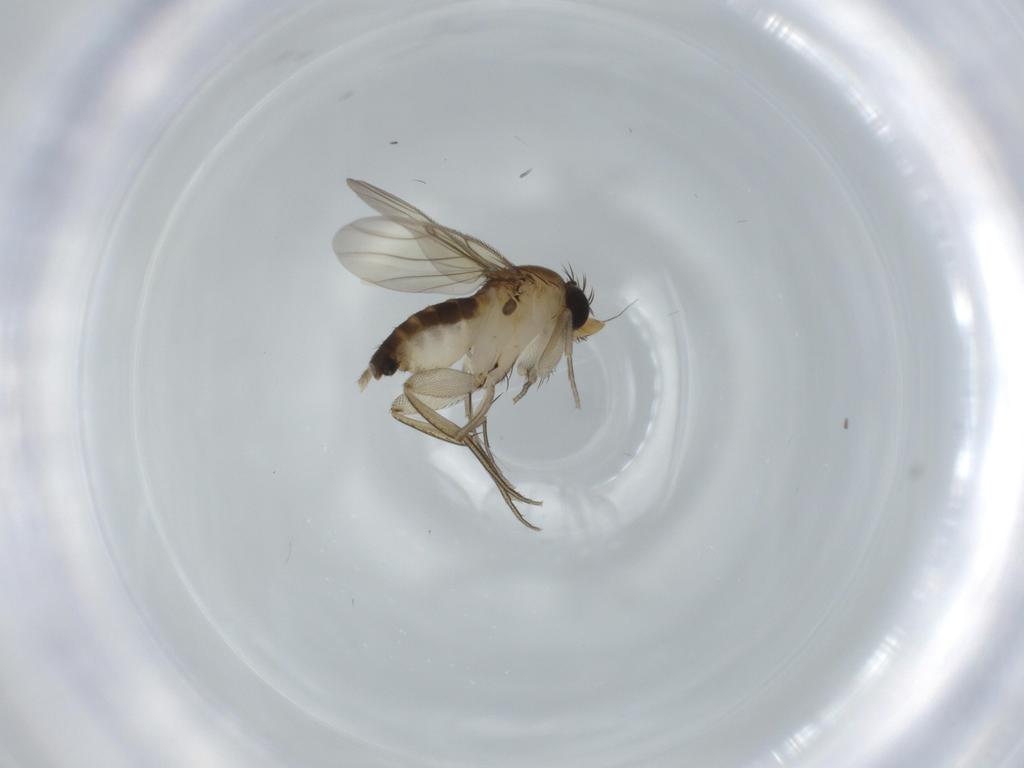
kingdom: Animalia
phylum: Arthropoda
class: Insecta
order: Diptera
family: Phoridae
